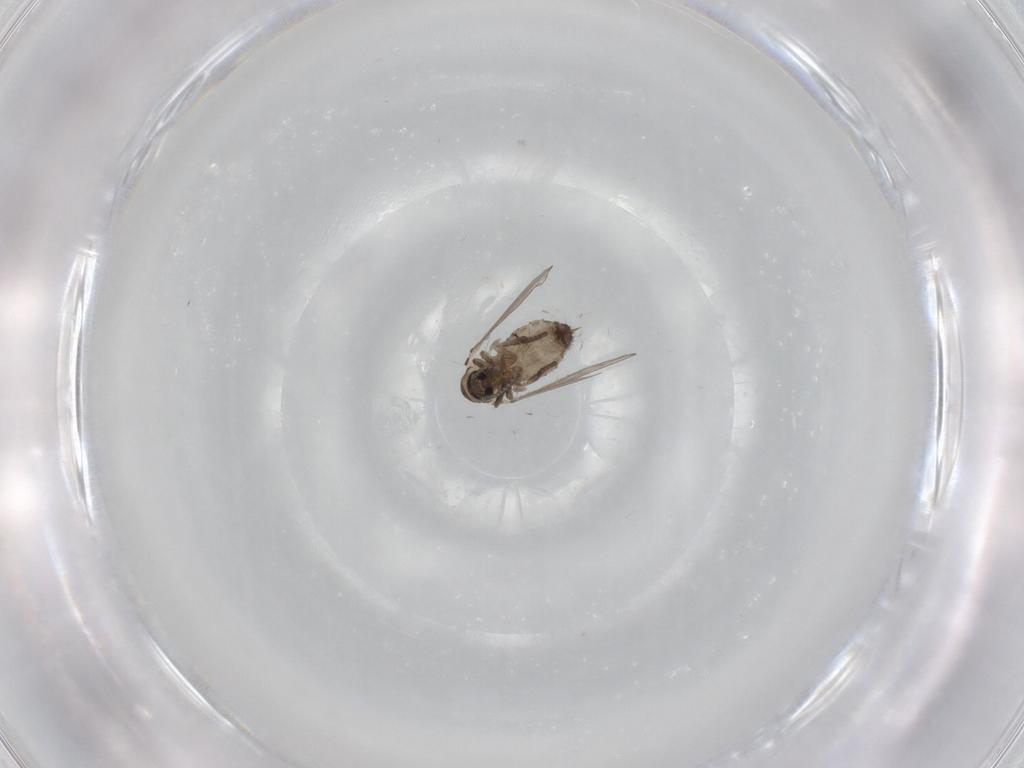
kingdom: Animalia
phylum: Arthropoda
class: Insecta
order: Diptera
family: Psychodidae
